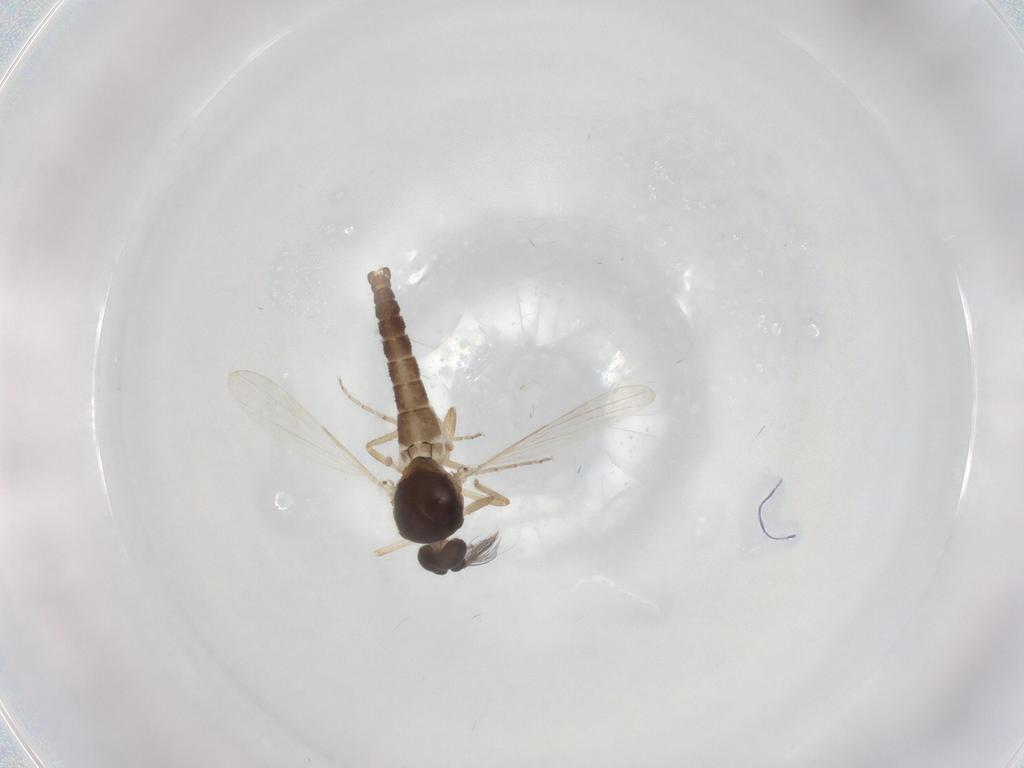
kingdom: Animalia
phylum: Arthropoda
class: Insecta
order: Diptera
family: Ceratopogonidae
